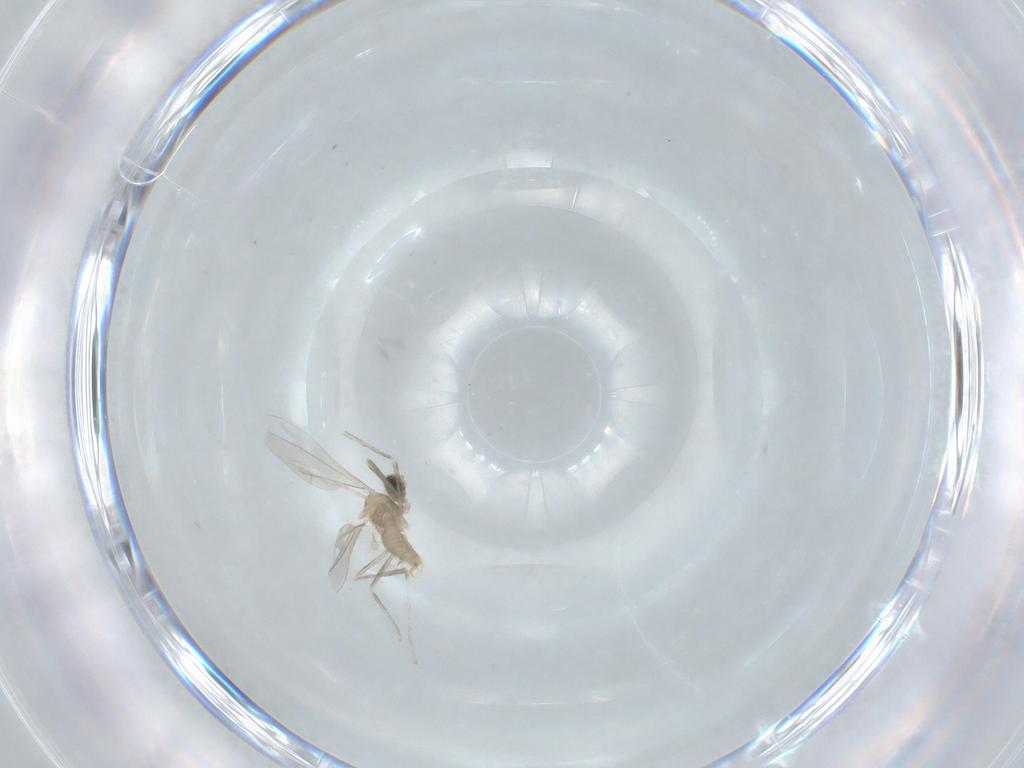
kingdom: Animalia
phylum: Arthropoda
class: Insecta
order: Diptera
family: Cecidomyiidae
